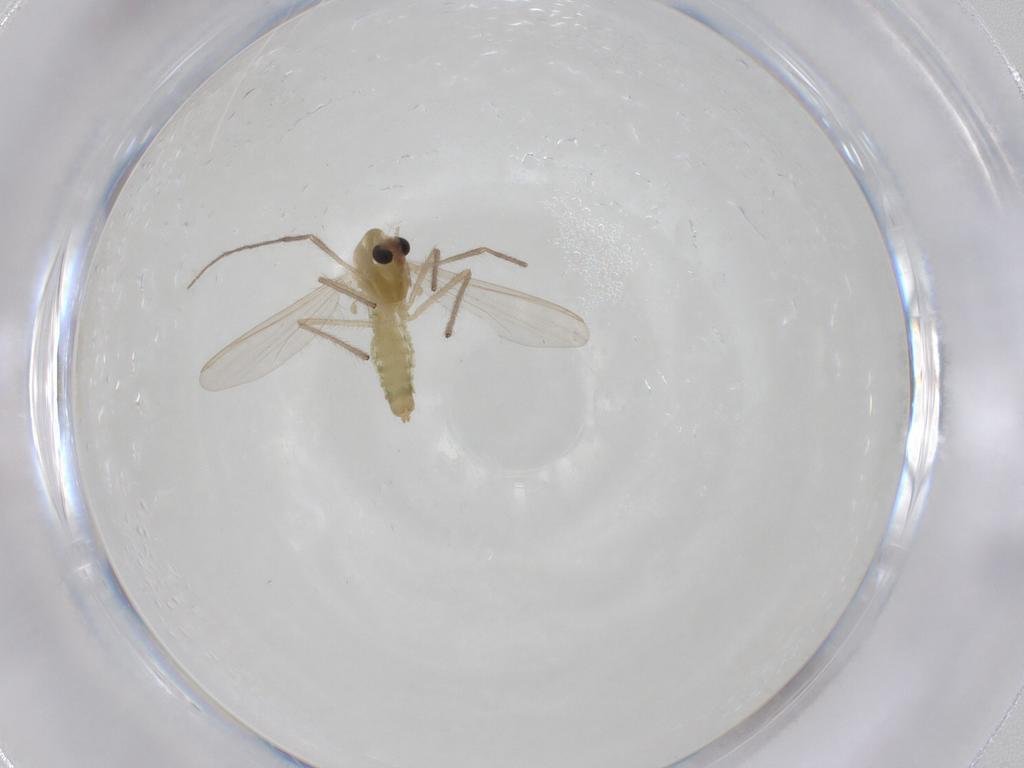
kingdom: Animalia
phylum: Arthropoda
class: Insecta
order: Diptera
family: Chironomidae
